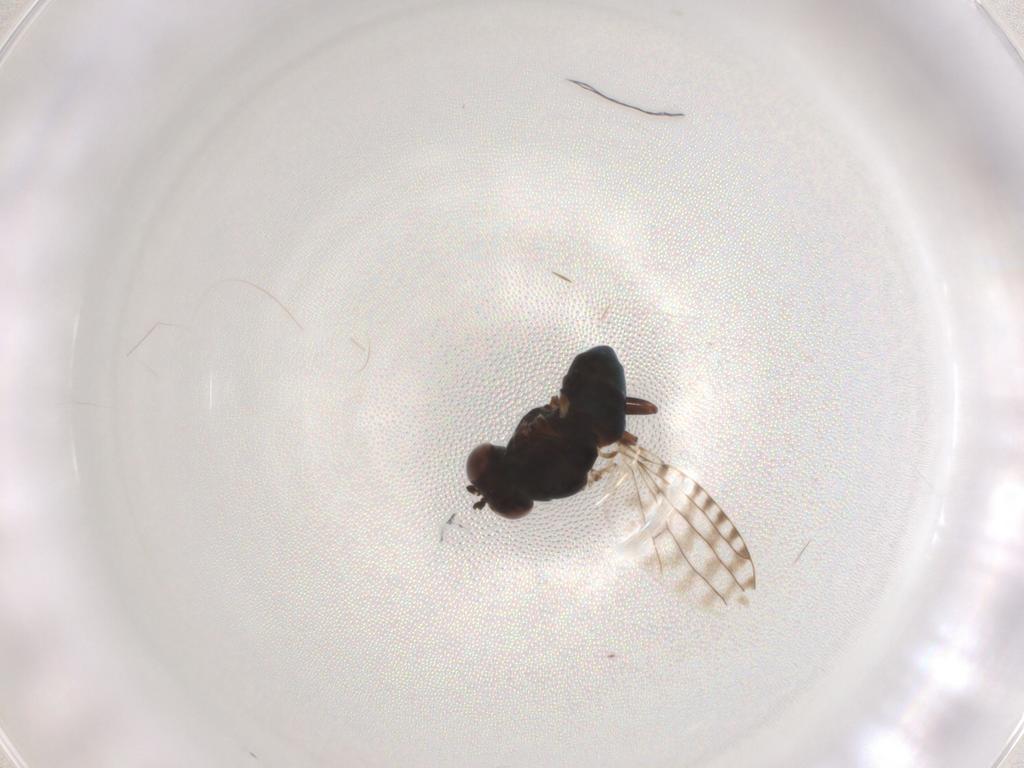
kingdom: Animalia
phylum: Arthropoda
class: Insecta
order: Diptera
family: Ephydridae
